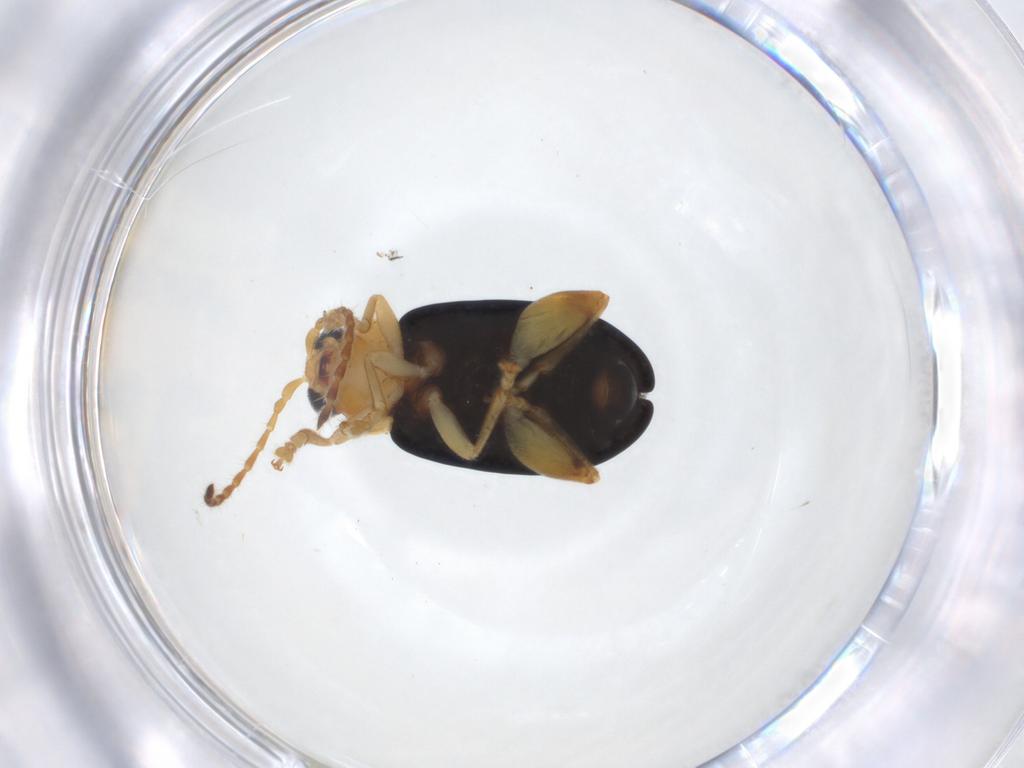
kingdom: Animalia
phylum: Arthropoda
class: Insecta
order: Coleoptera
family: Chrysomelidae
